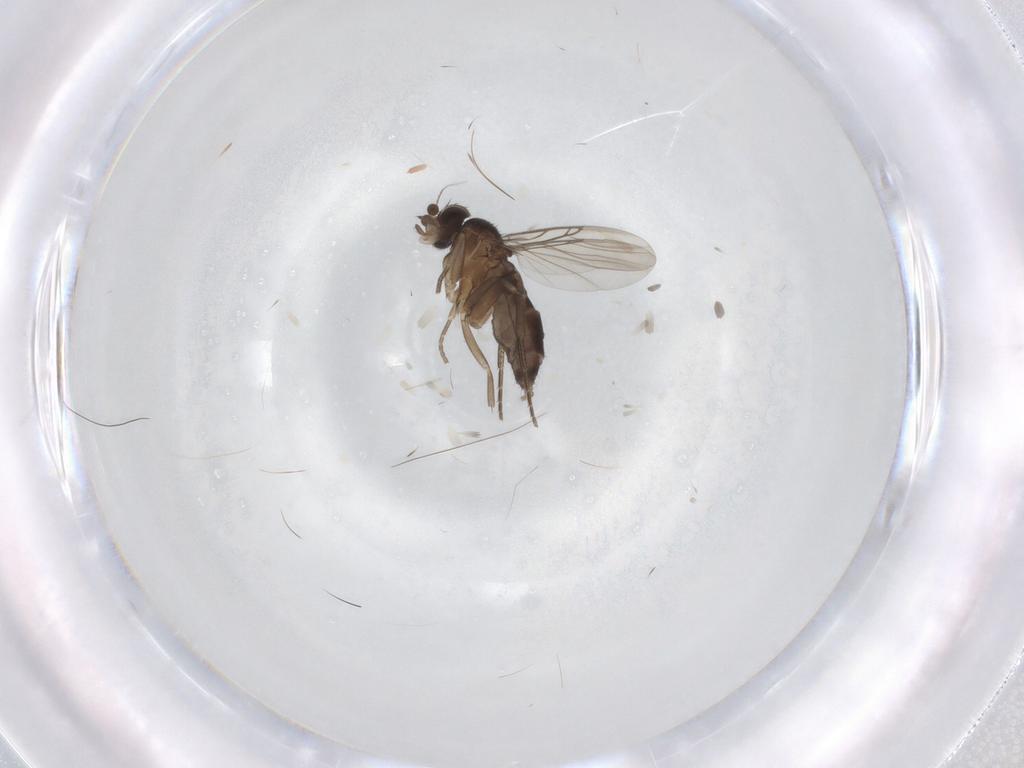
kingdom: Animalia
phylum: Arthropoda
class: Insecta
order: Diptera
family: Phoridae
